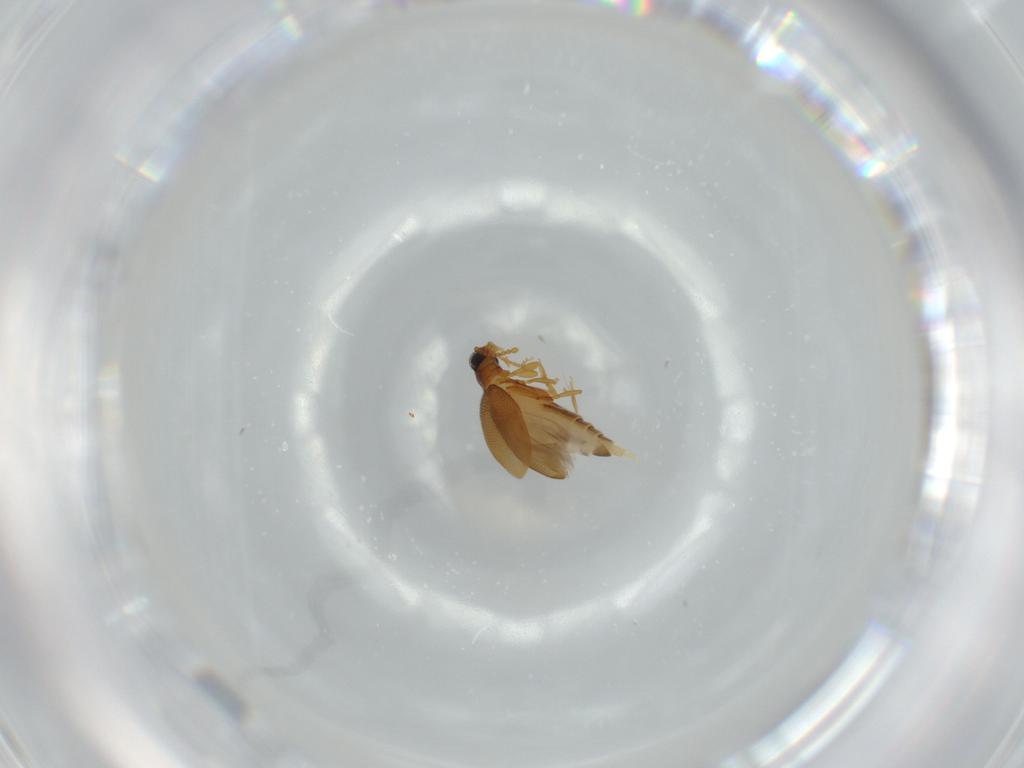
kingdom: Animalia
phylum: Arthropoda
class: Insecta
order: Coleoptera
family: Aderidae
